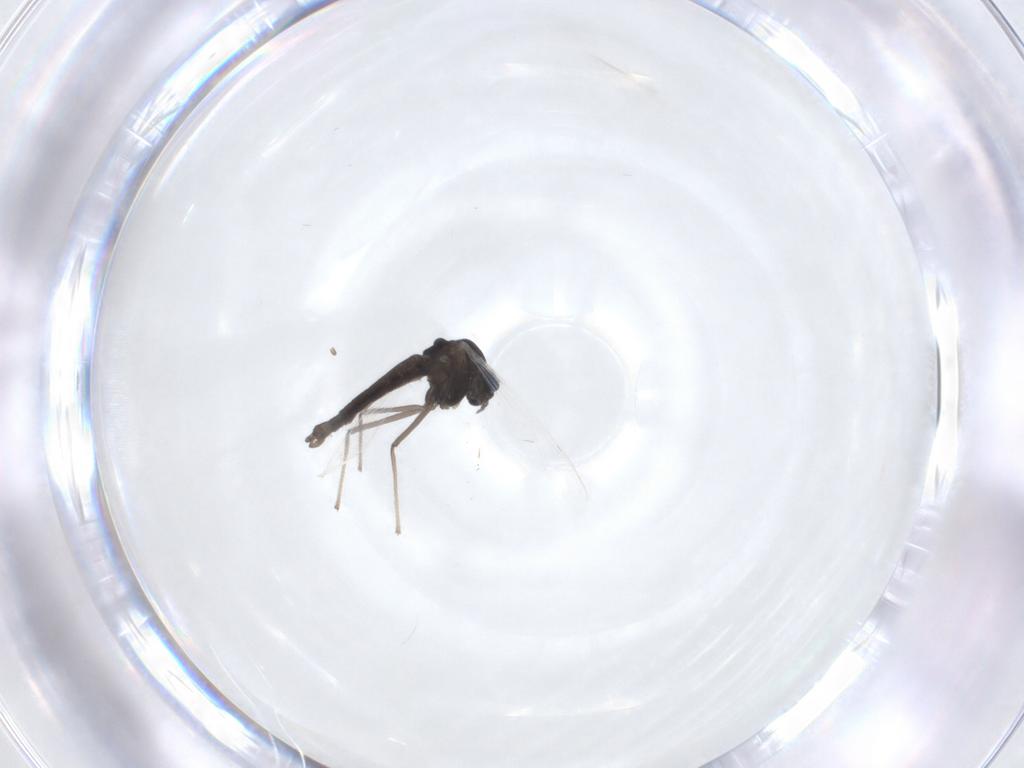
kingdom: Animalia
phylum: Arthropoda
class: Insecta
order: Diptera
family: Chironomidae
